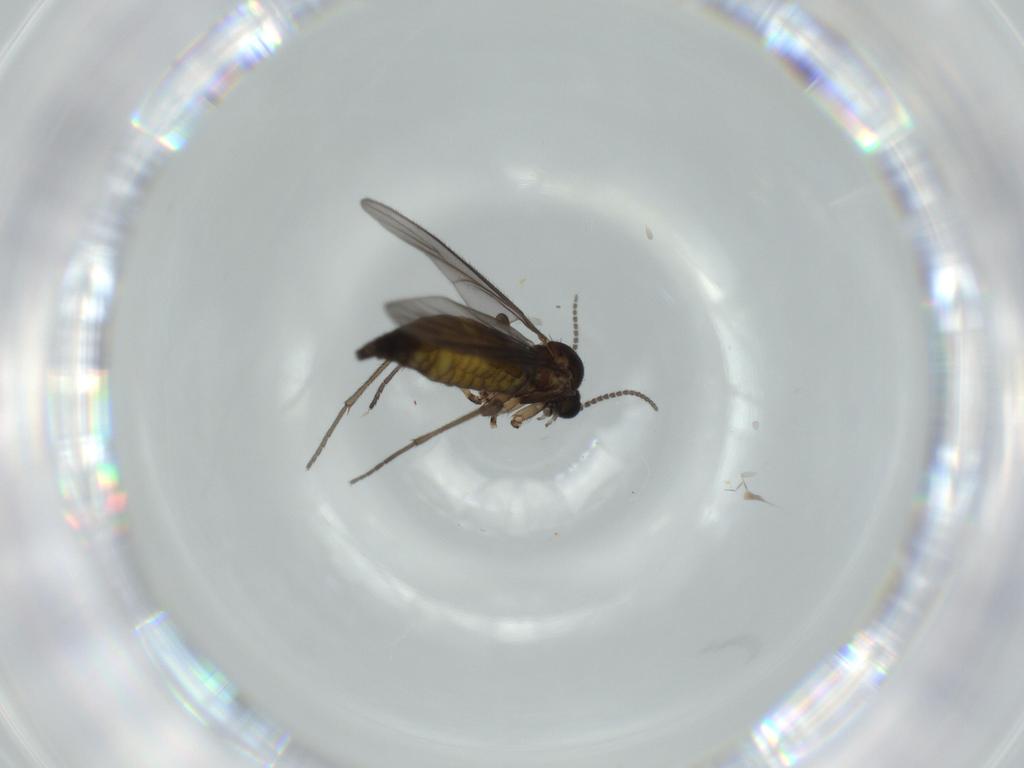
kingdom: Animalia
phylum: Arthropoda
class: Insecta
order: Diptera
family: Sciaridae
